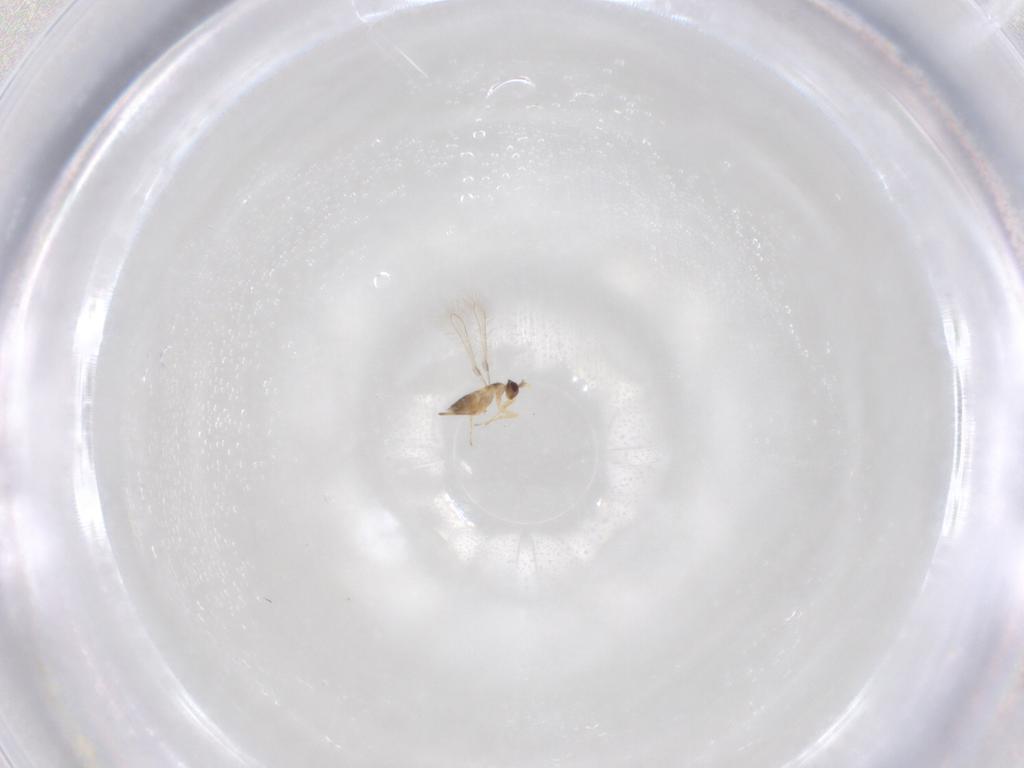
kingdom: Animalia
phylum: Arthropoda
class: Insecta
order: Hymenoptera
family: Mymaridae
